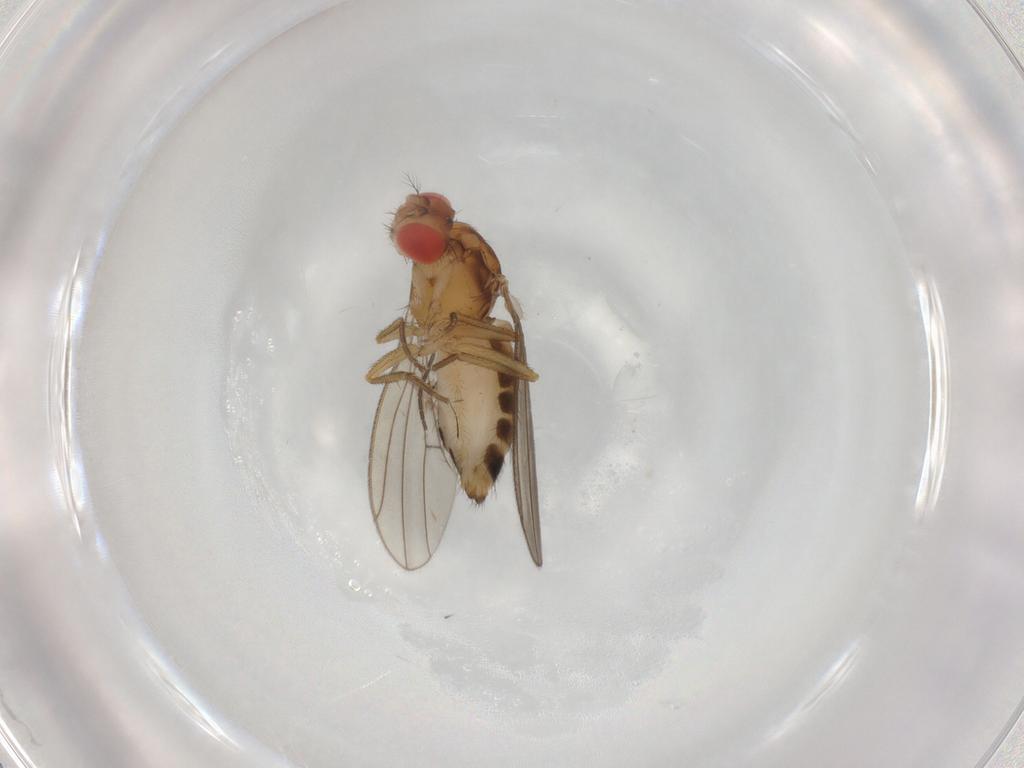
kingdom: Animalia
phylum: Arthropoda
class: Insecta
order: Diptera
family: Drosophilidae
